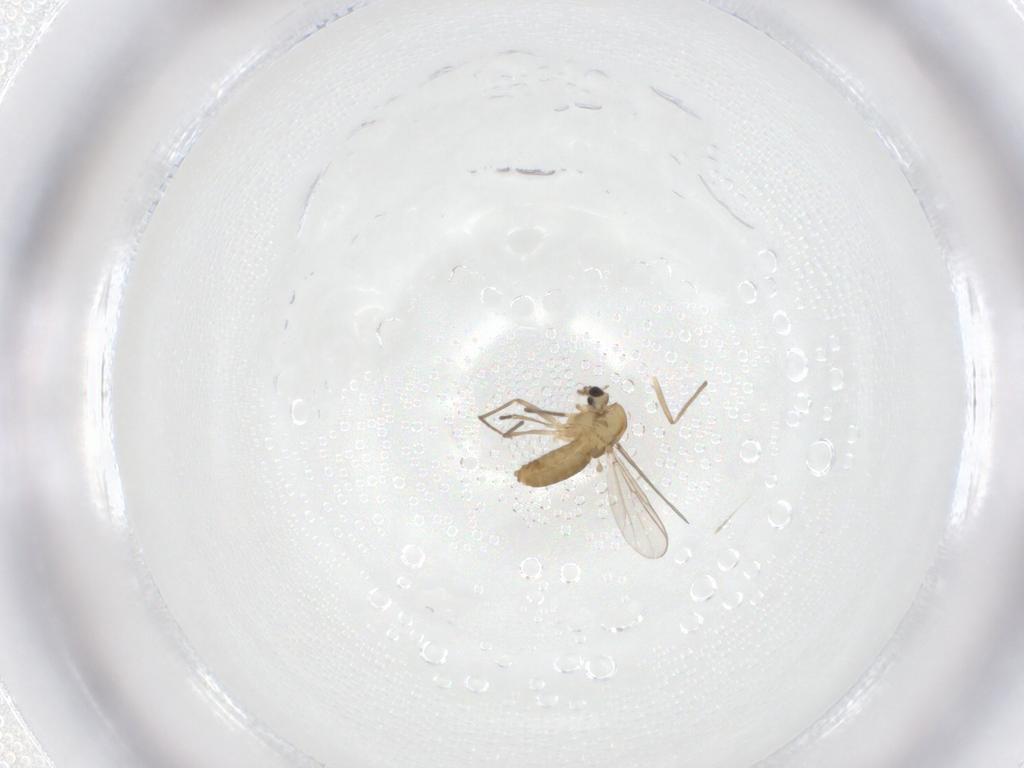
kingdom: Animalia
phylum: Arthropoda
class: Insecta
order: Diptera
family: Chironomidae
